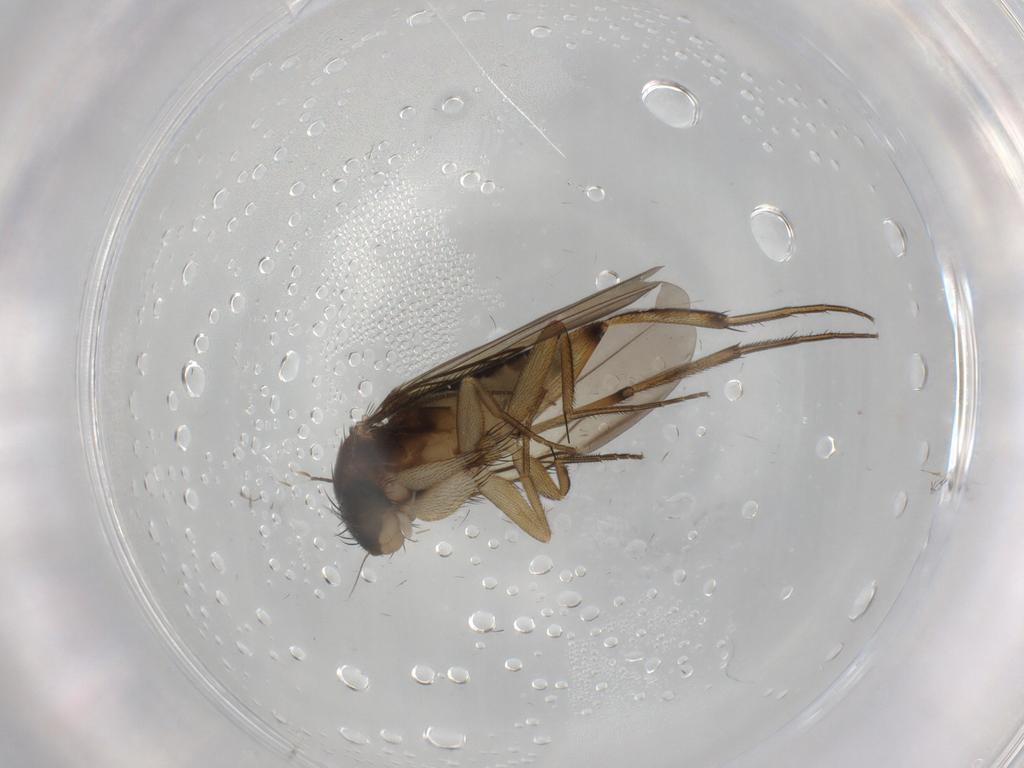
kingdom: Animalia
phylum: Arthropoda
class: Insecta
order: Diptera
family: Phoridae
